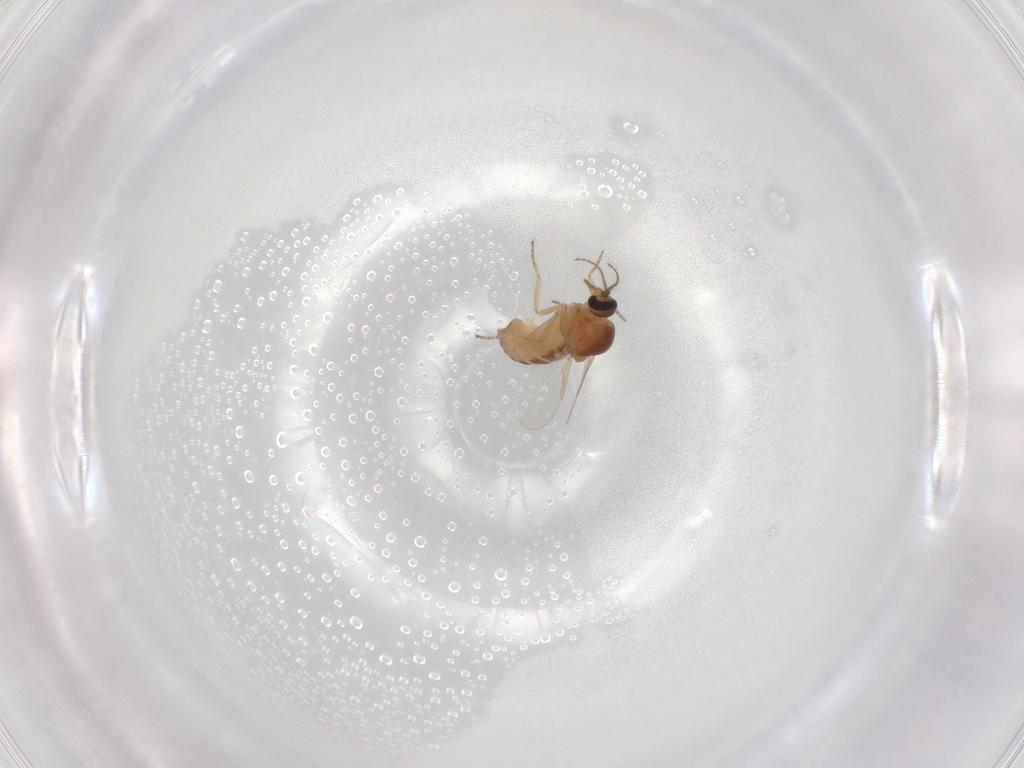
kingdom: Animalia
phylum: Arthropoda
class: Insecta
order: Diptera
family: Ceratopogonidae
